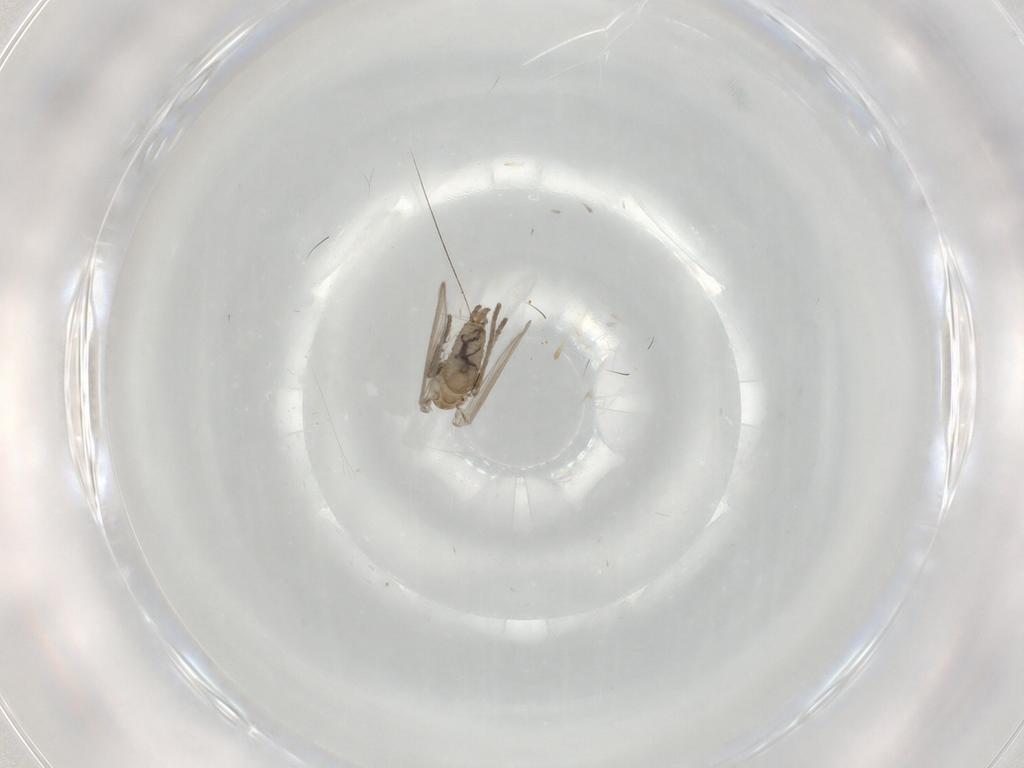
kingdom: Animalia
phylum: Arthropoda
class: Insecta
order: Diptera
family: Psychodidae
